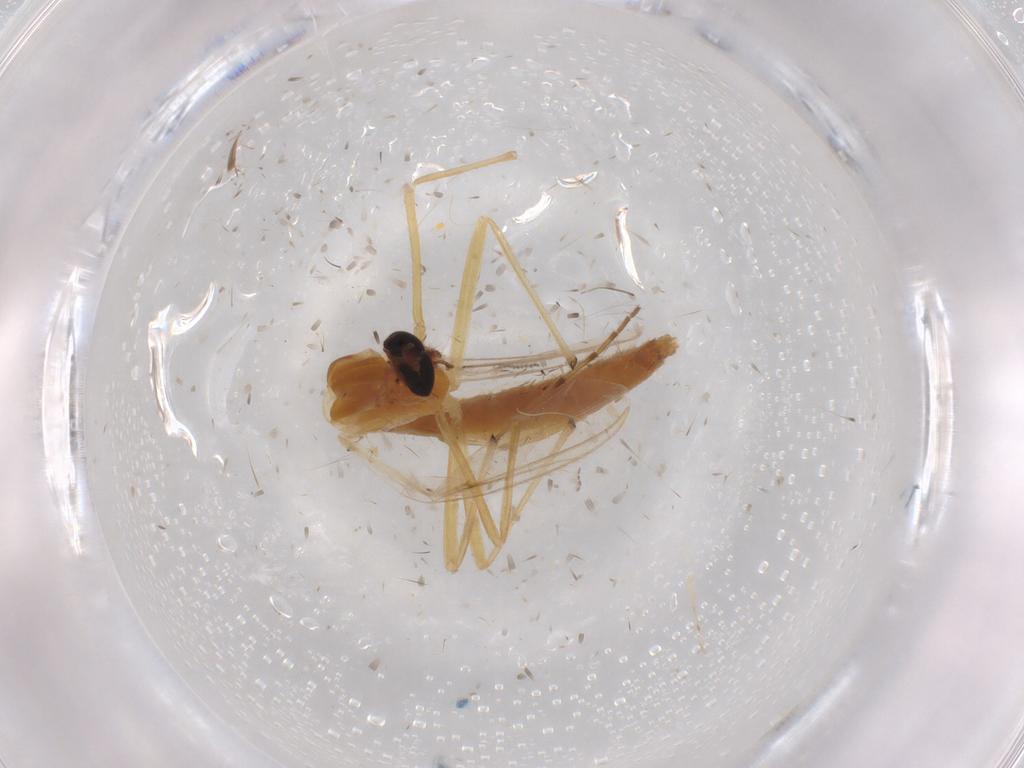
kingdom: Animalia
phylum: Arthropoda
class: Insecta
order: Diptera
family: Chironomidae
